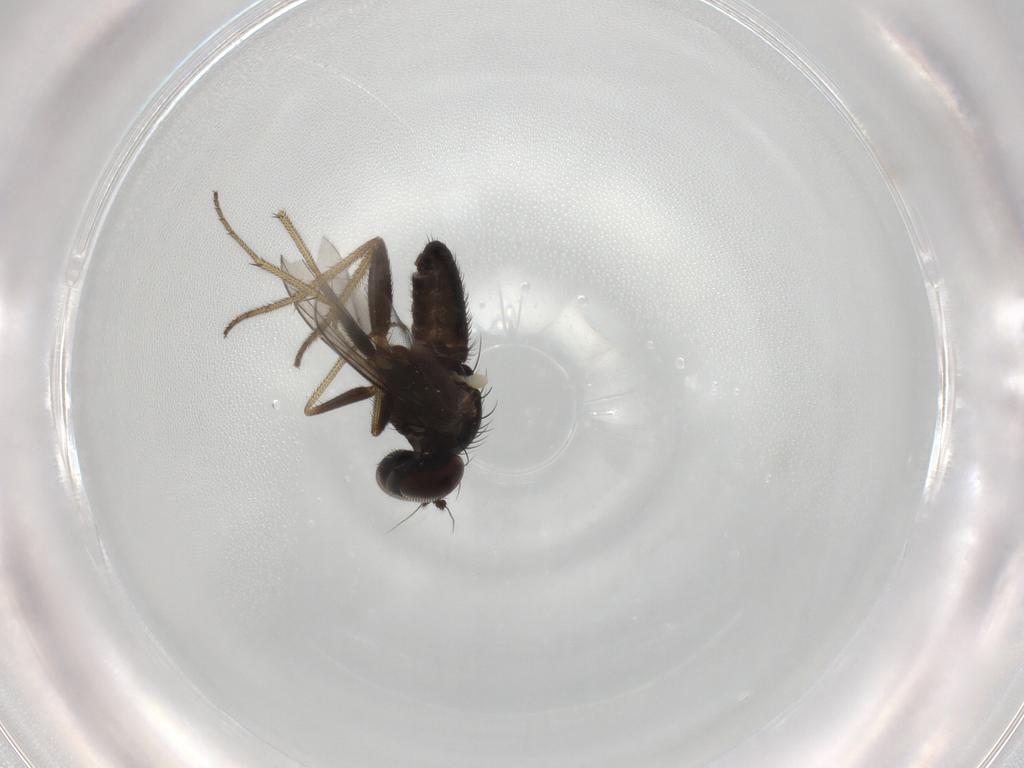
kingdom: Animalia
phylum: Arthropoda
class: Insecta
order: Diptera
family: Dolichopodidae
